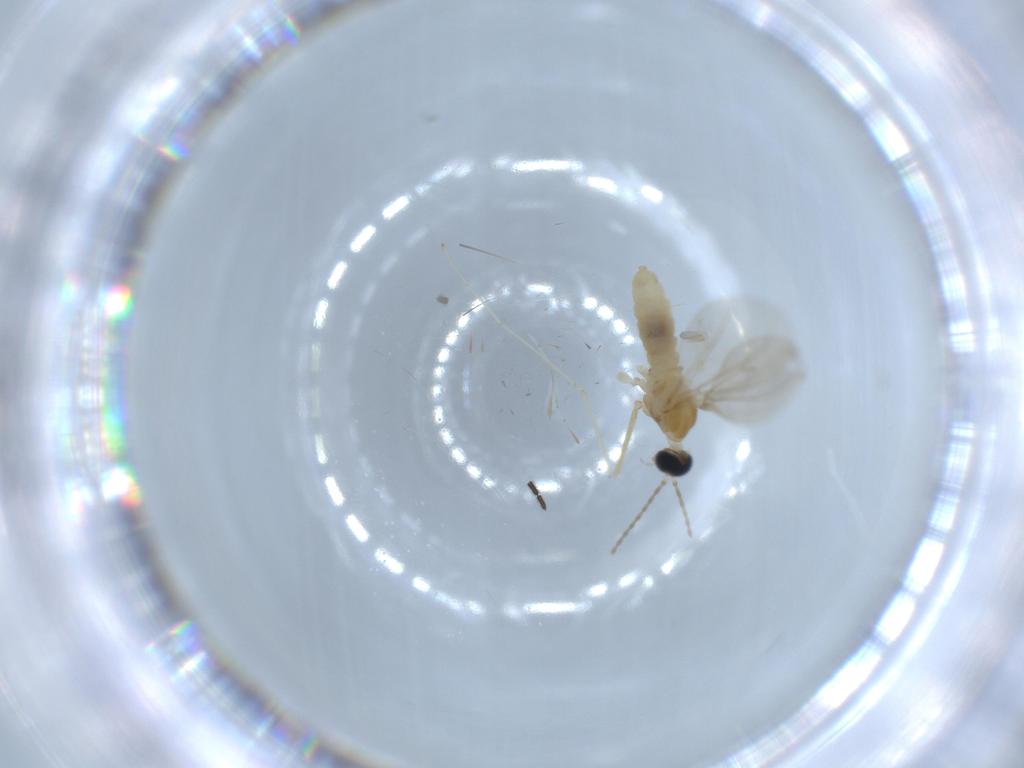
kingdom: Animalia
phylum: Arthropoda
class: Insecta
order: Diptera
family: Cecidomyiidae
